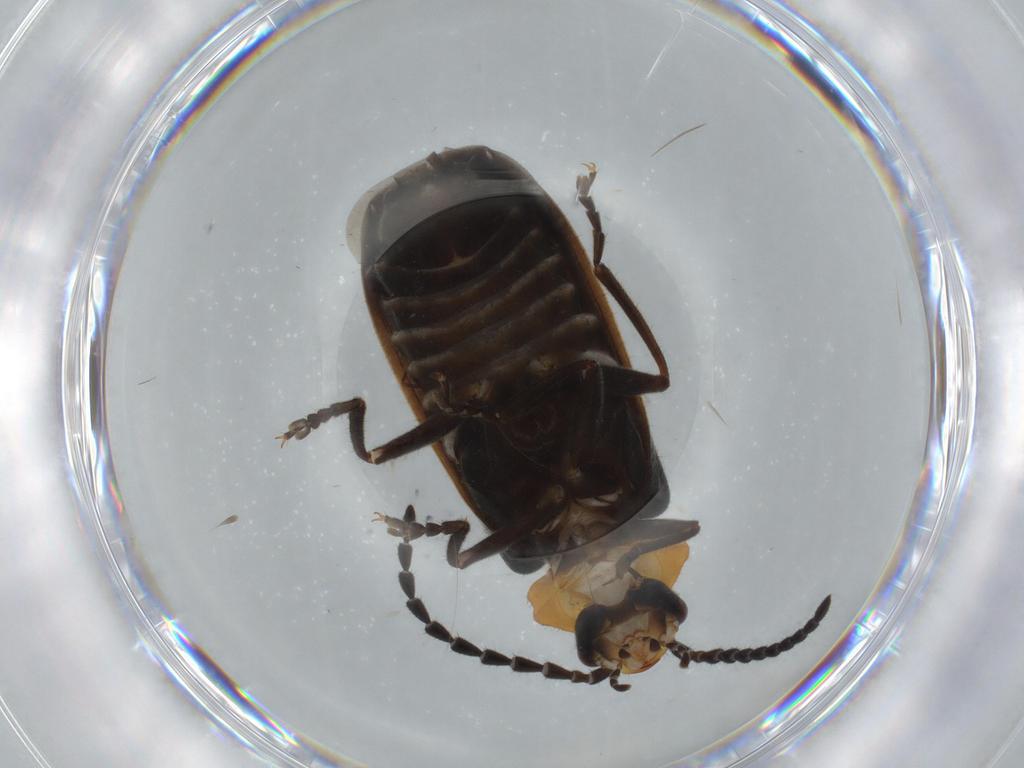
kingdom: Animalia
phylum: Arthropoda
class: Insecta
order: Coleoptera
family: Cantharidae
